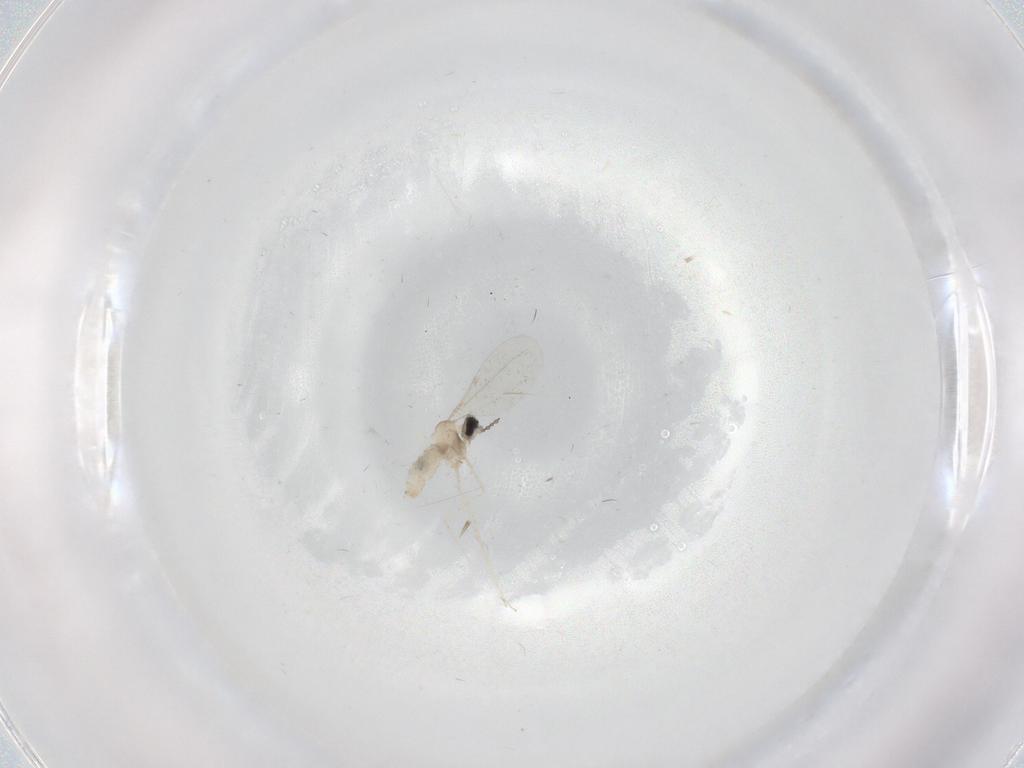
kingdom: Animalia
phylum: Arthropoda
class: Insecta
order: Diptera
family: Cecidomyiidae
